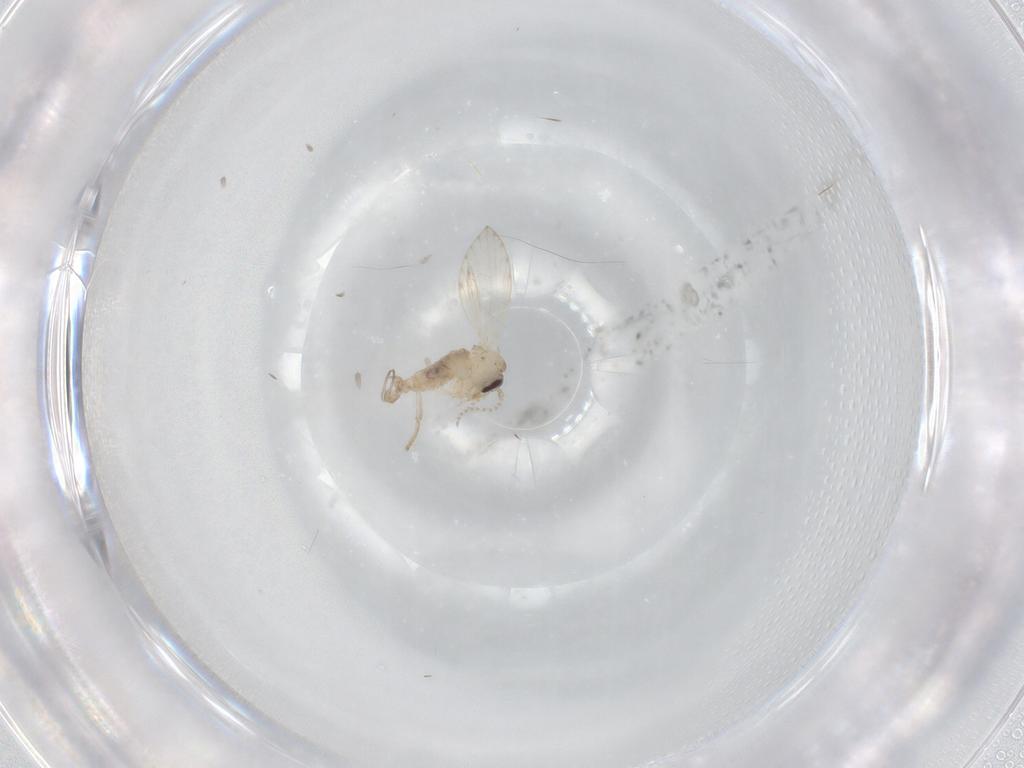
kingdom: Animalia
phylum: Arthropoda
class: Insecta
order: Diptera
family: Psychodidae
